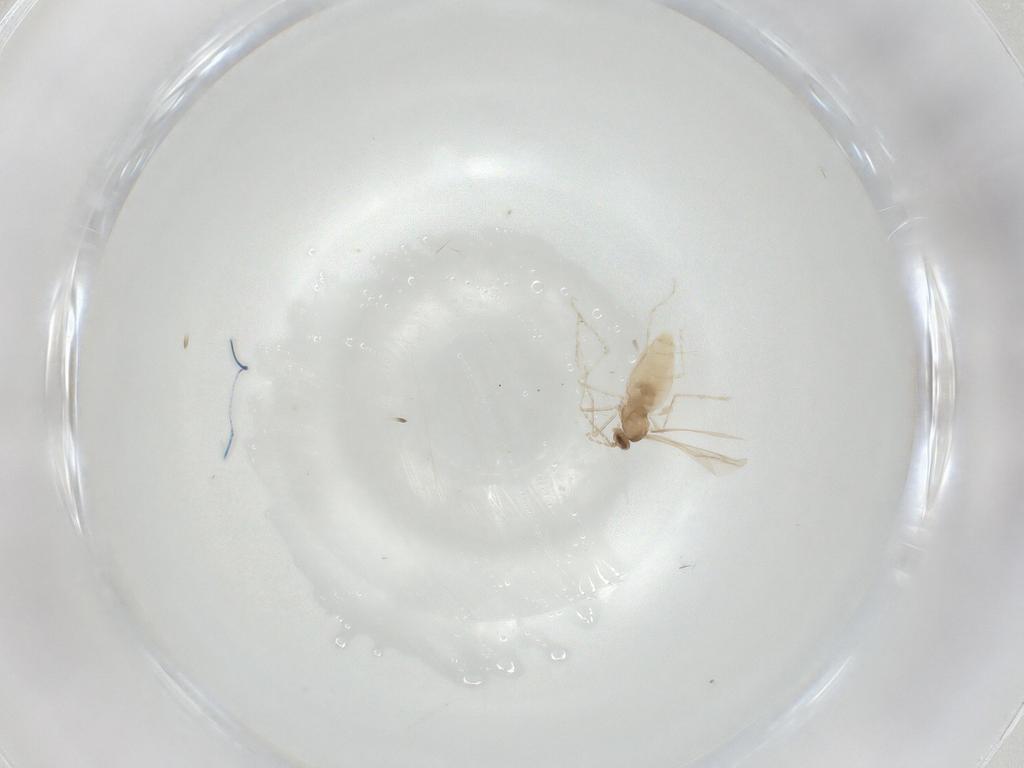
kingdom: Animalia
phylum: Arthropoda
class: Insecta
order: Diptera
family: Cecidomyiidae
